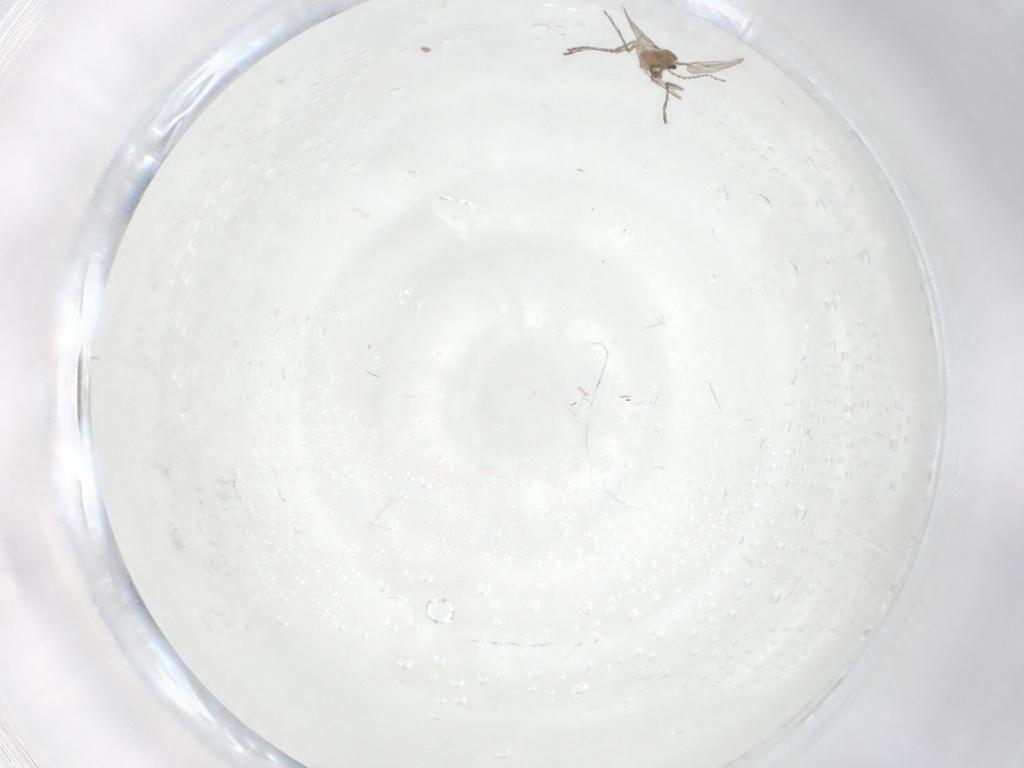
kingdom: Animalia
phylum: Arthropoda
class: Insecta
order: Diptera
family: Cecidomyiidae
